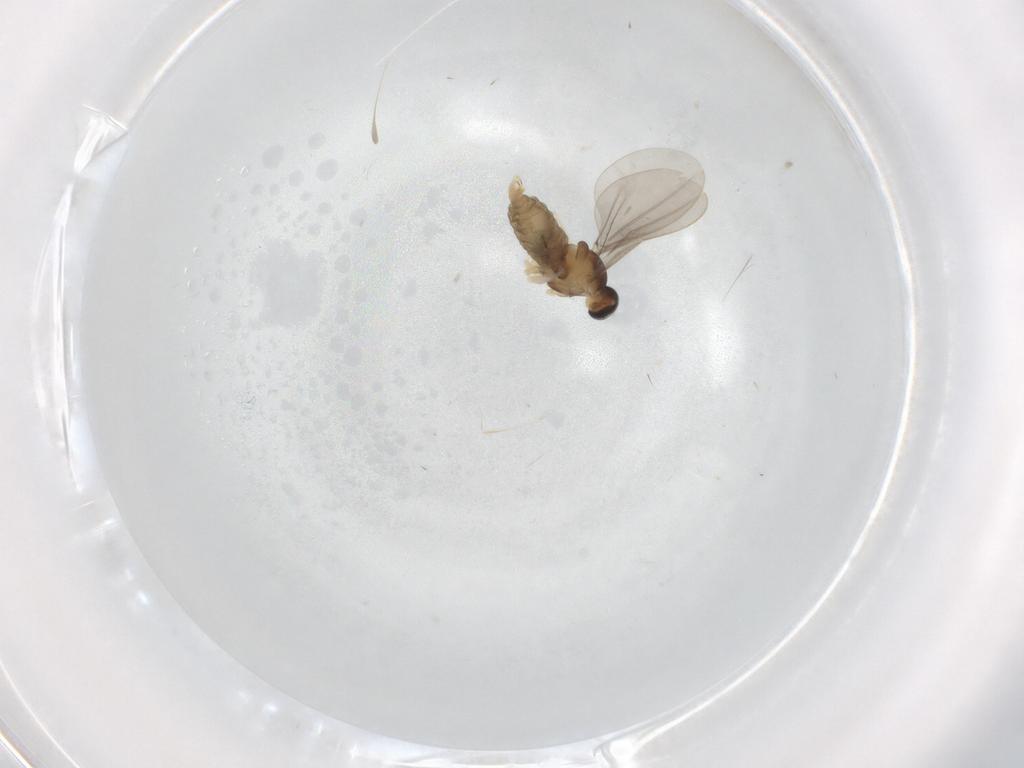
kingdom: Animalia
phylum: Arthropoda
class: Insecta
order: Diptera
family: Cecidomyiidae
